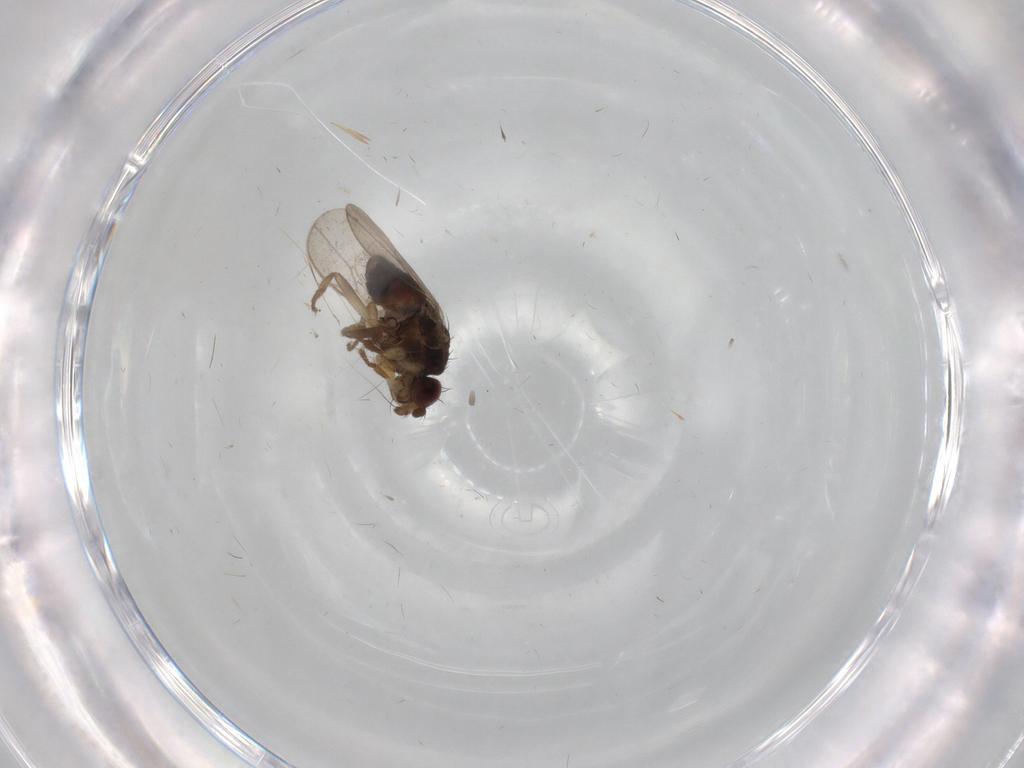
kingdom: Animalia
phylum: Arthropoda
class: Insecta
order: Diptera
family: Sphaeroceridae
